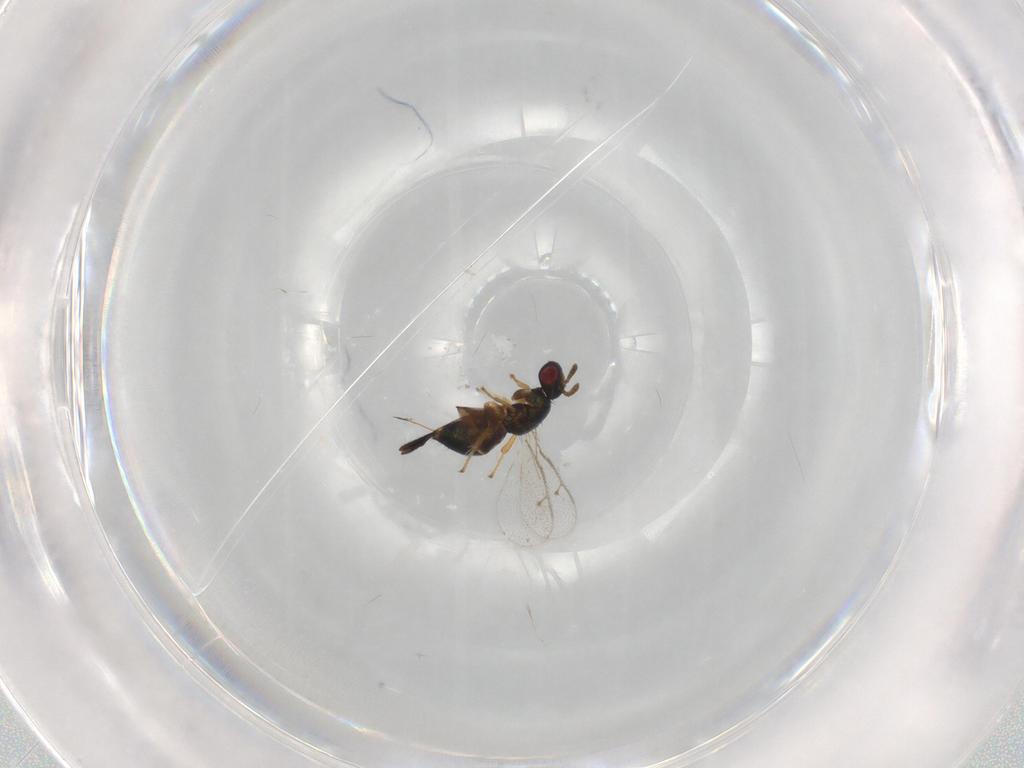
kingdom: Animalia
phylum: Arthropoda
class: Insecta
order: Hymenoptera
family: Torymidae
